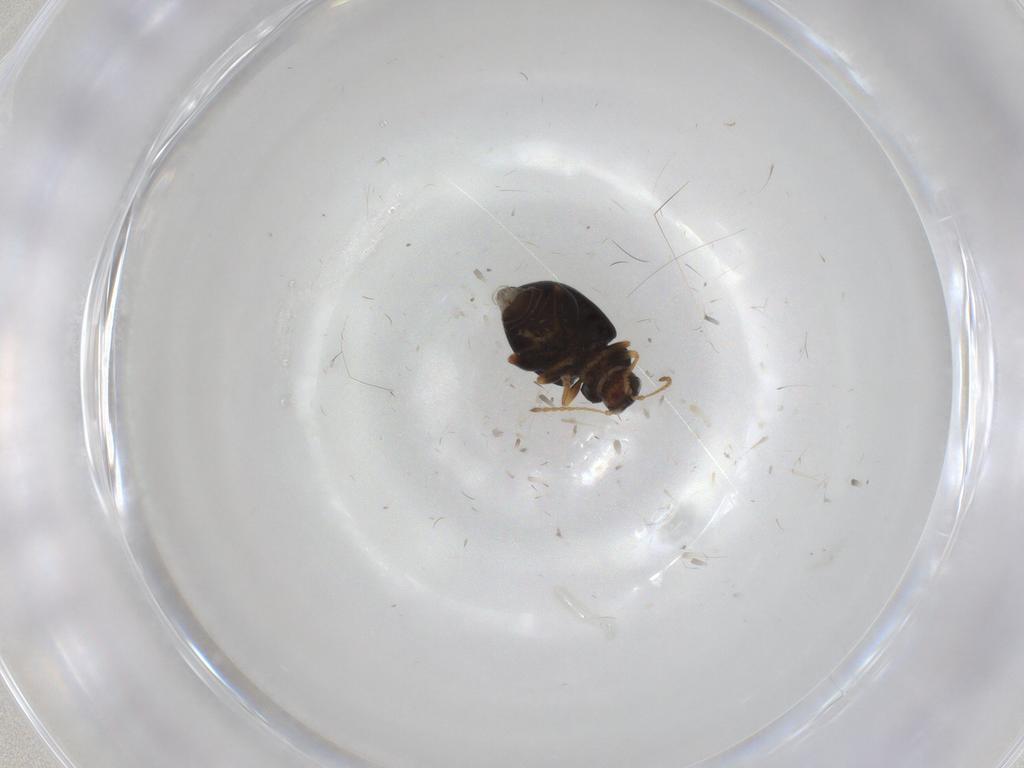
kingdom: Animalia
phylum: Arthropoda
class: Insecta
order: Coleoptera
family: Chrysomelidae
